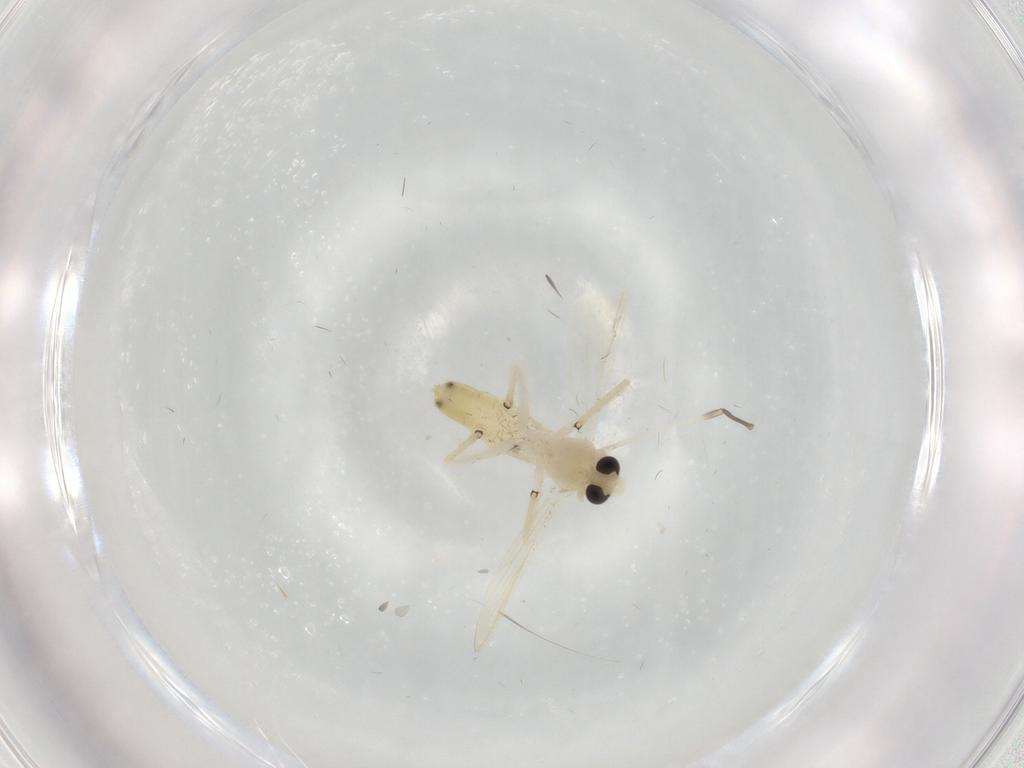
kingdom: Animalia
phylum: Arthropoda
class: Insecta
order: Diptera
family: Chironomidae
